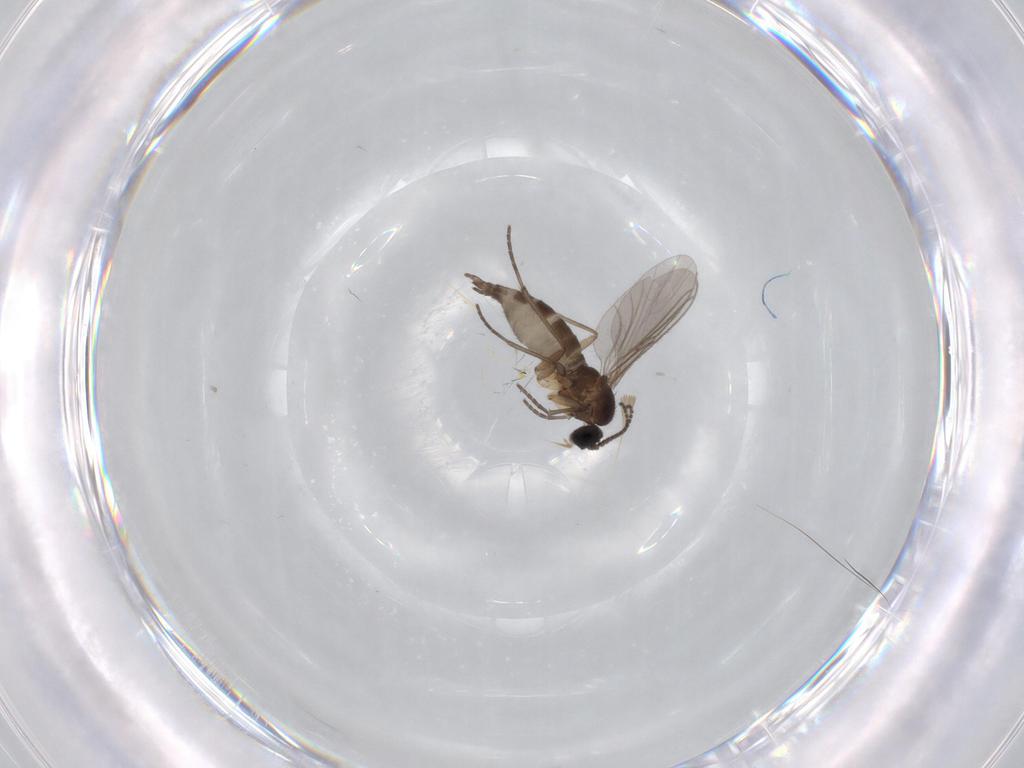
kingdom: Animalia
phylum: Arthropoda
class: Insecta
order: Diptera
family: Sciaridae
